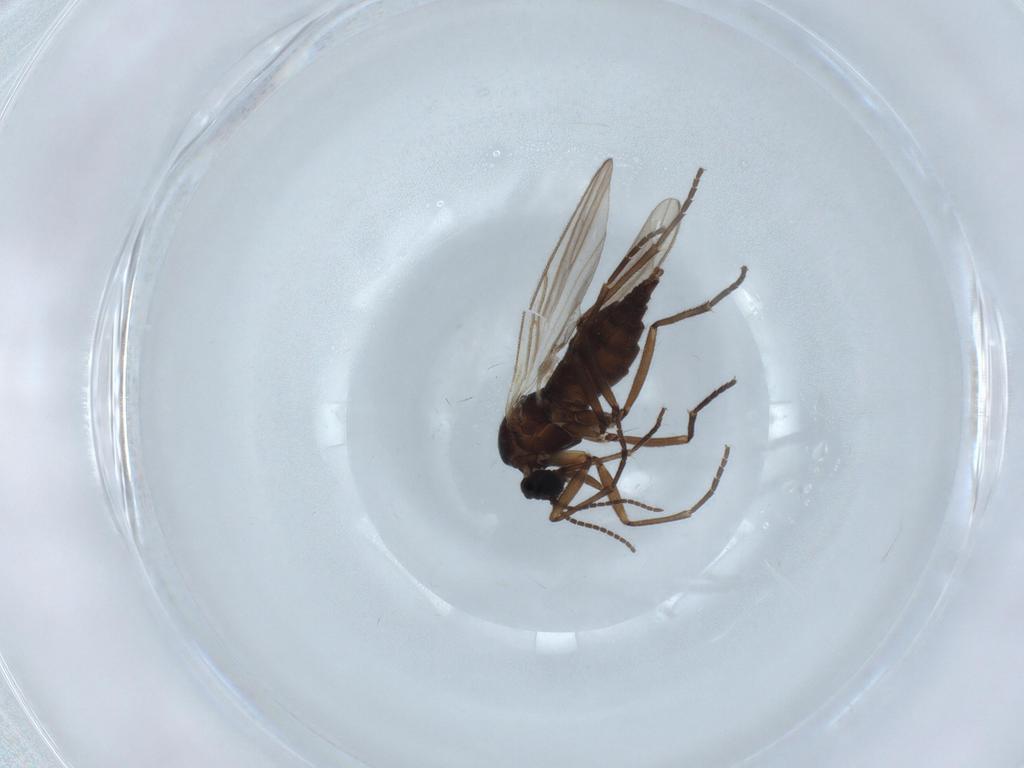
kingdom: Animalia
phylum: Arthropoda
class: Insecta
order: Diptera
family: Sciaridae
